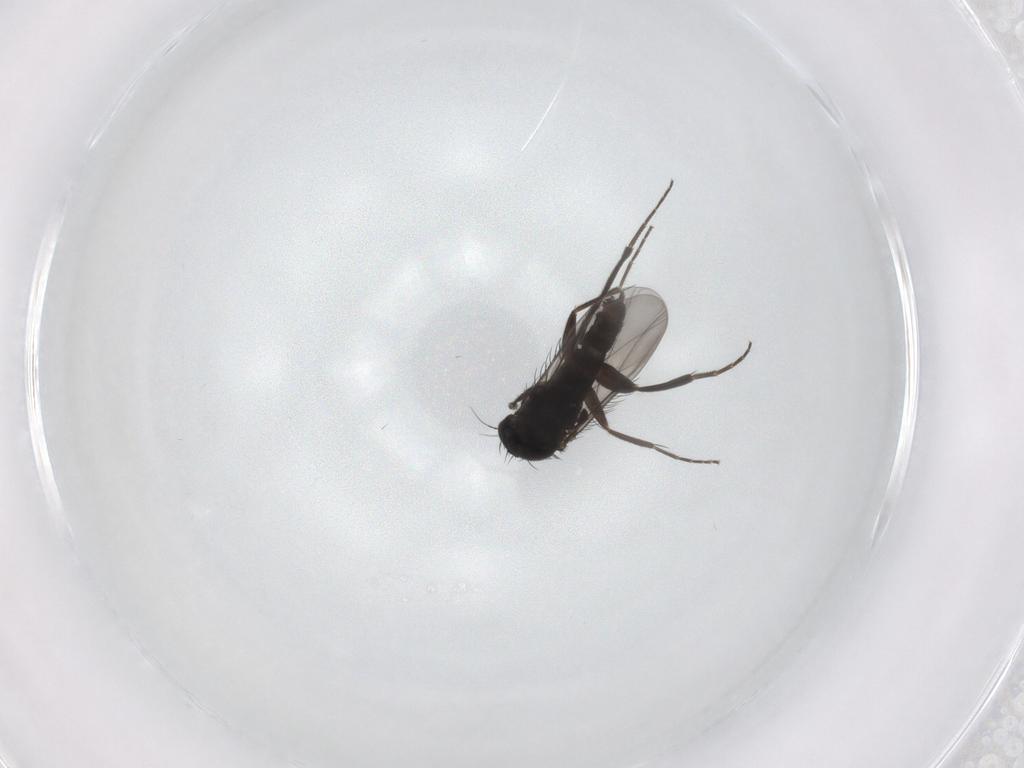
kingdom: Animalia
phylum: Arthropoda
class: Insecta
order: Diptera
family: Phoridae
